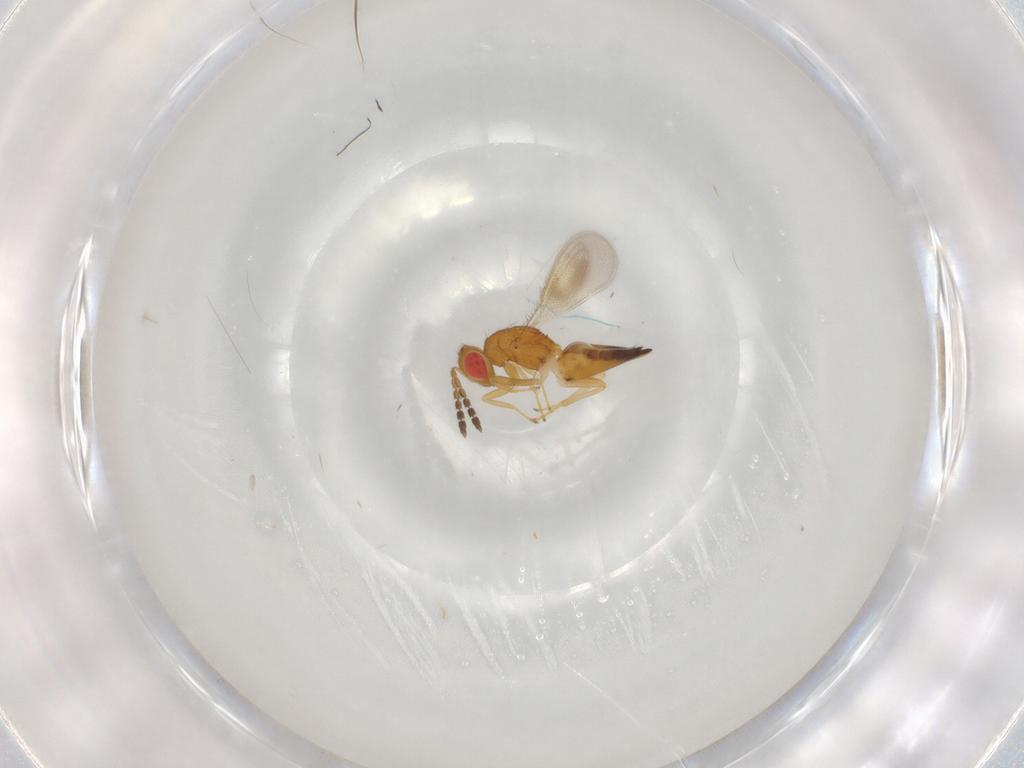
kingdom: Animalia
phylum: Arthropoda
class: Insecta
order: Hymenoptera
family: Eulophidae
